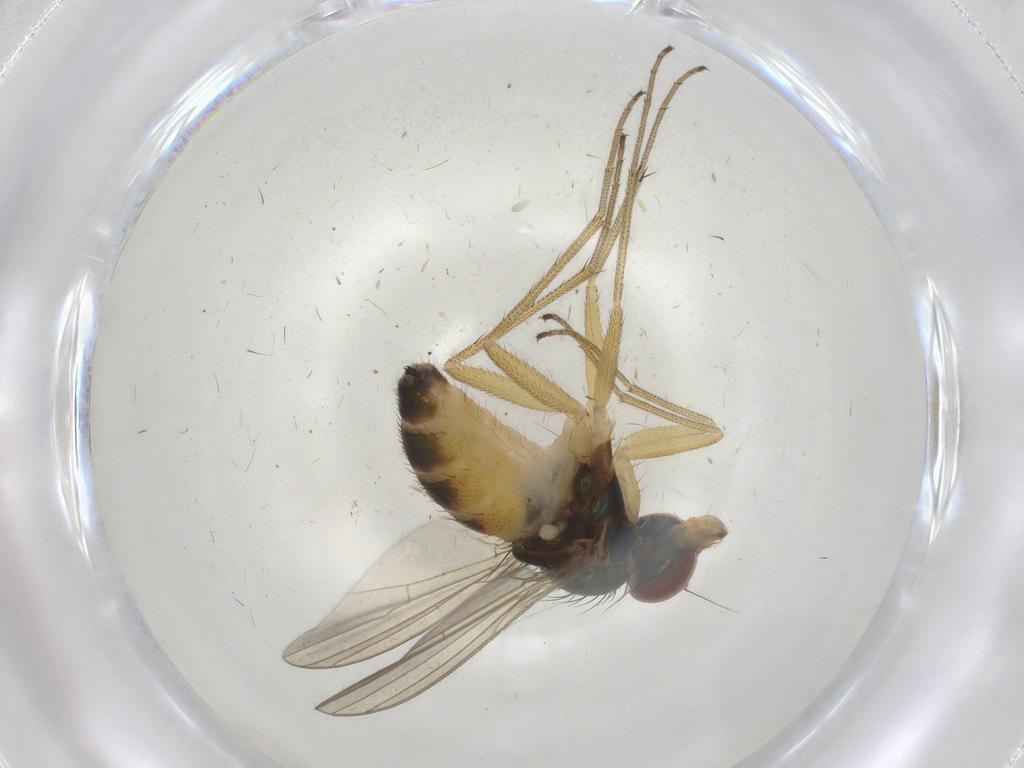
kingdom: Animalia
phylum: Arthropoda
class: Insecta
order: Diptera
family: Dolichopodidae
